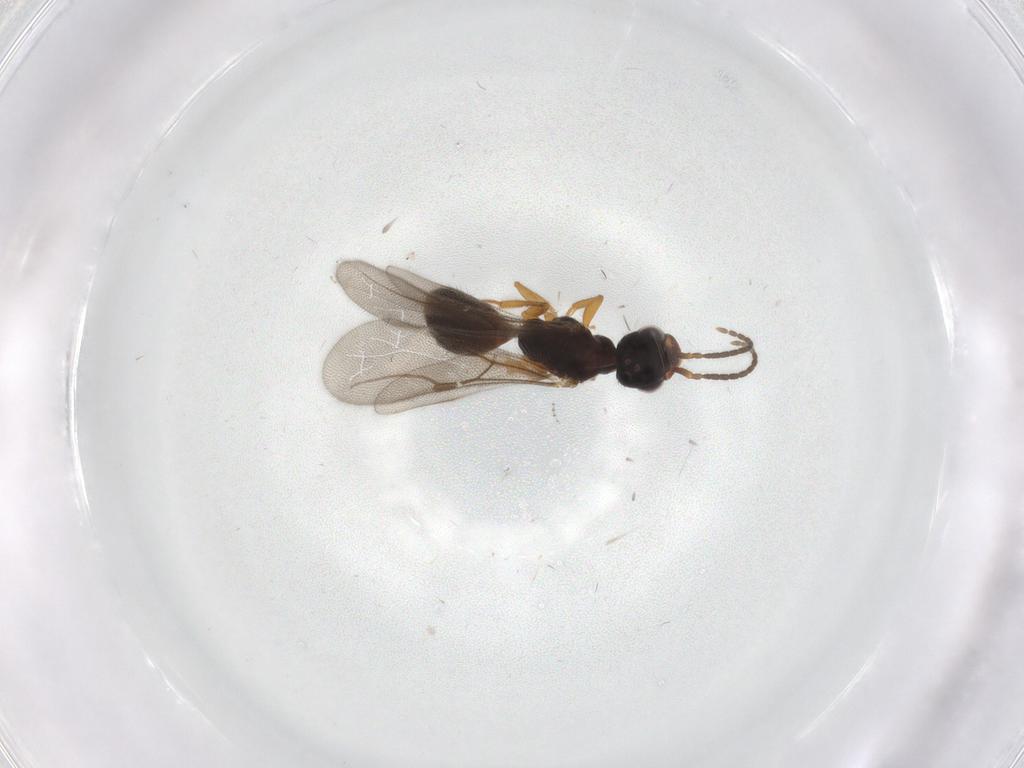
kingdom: Animalia
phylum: Arthropoda
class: Insecta
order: Hymenoptera
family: Bethylidae
